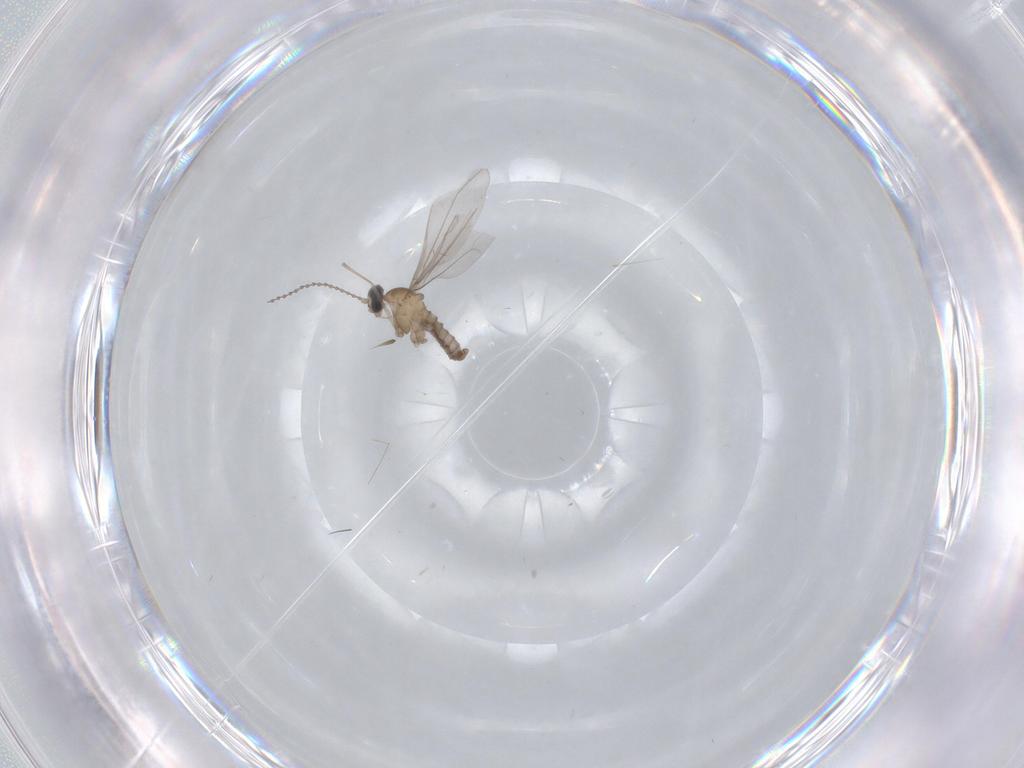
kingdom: Animalia
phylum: Arthropoda
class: Insecta
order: Diptera
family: Cecidomyiidae
